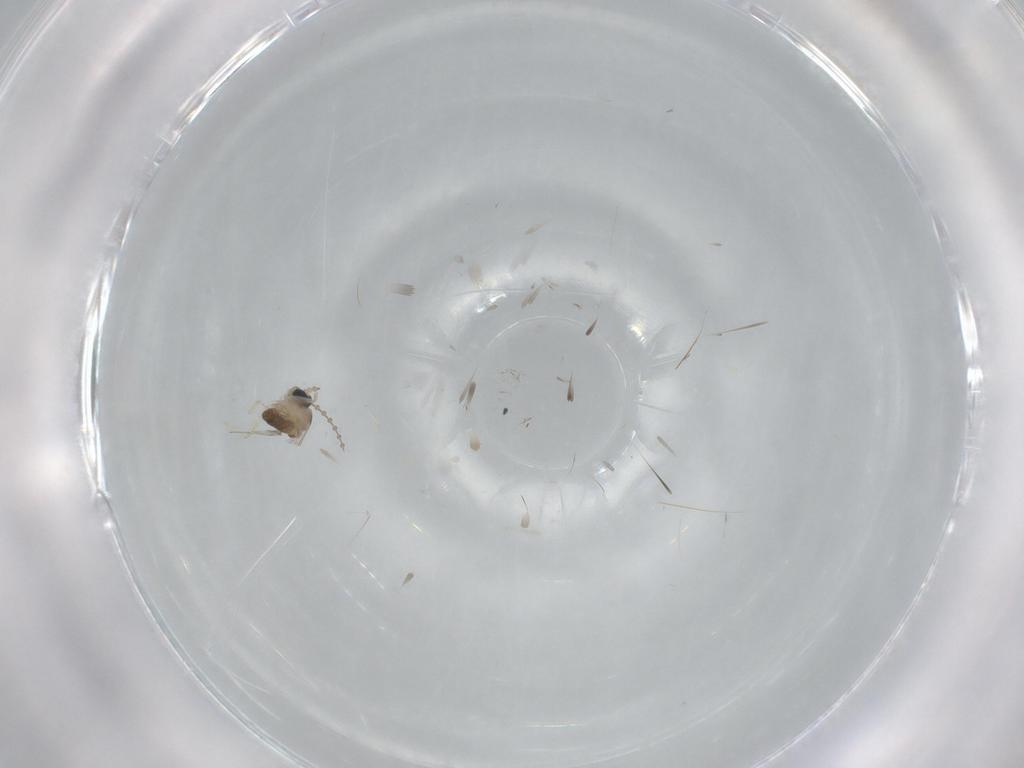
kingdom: Animalia
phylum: Arthropoda
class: Insecta
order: Diptera
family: Cecidomyiidae
